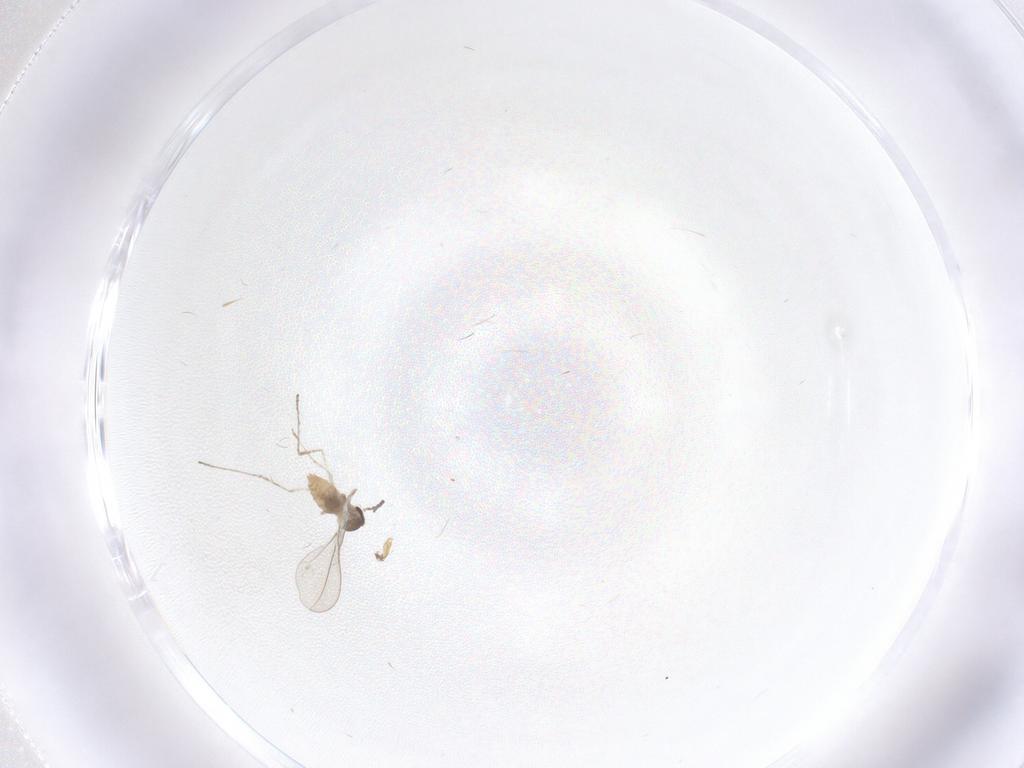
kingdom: Animalia
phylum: Arthropoda
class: Insecta
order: Diptera
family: Cecidomyiidae
